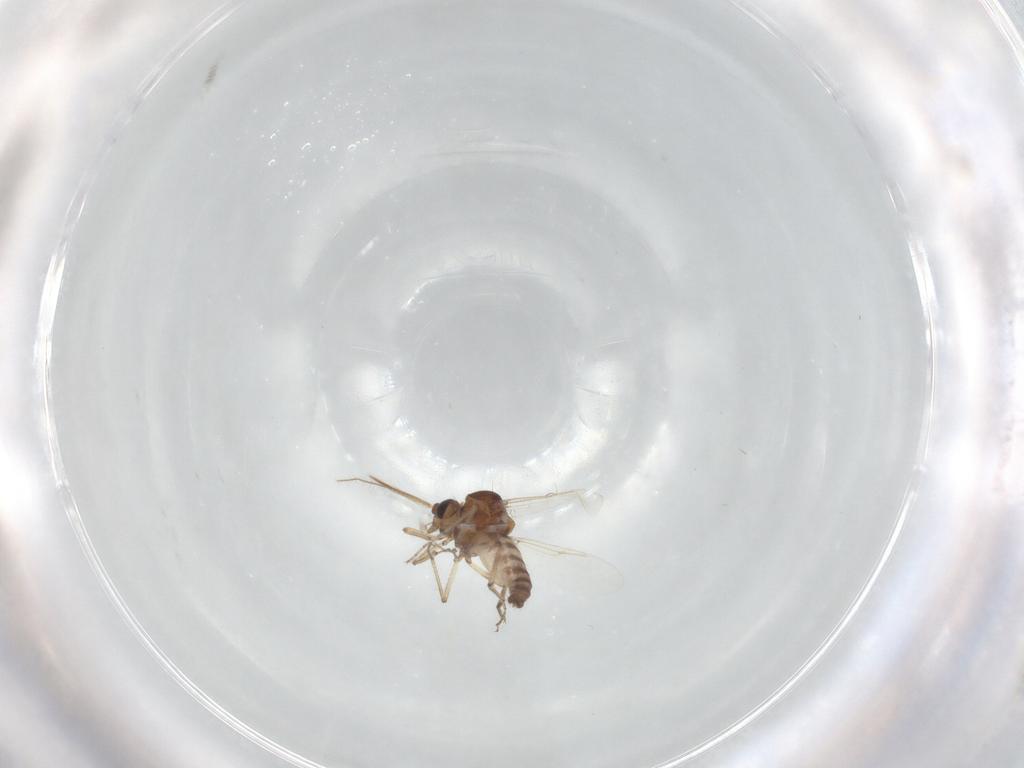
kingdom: Animalia
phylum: Arthropoda
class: Insecta
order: Diptera
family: Ceratopogonidae
